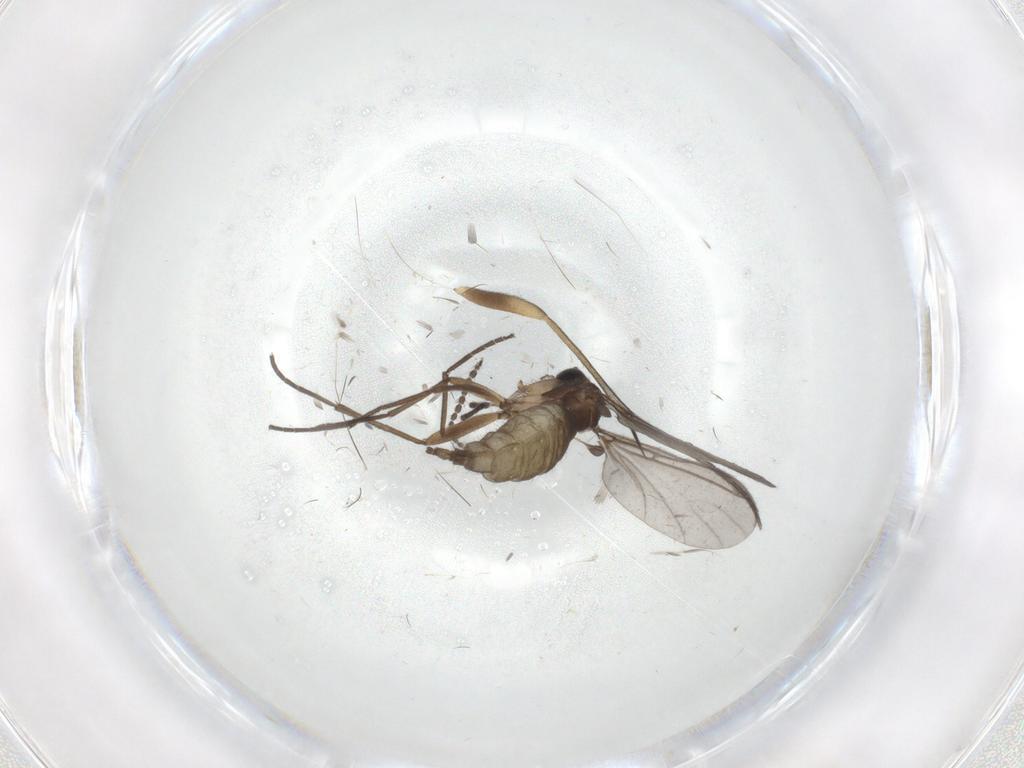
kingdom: Animalia
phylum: Arthropoda
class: Insecta
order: Diptera
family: Sciaridae
